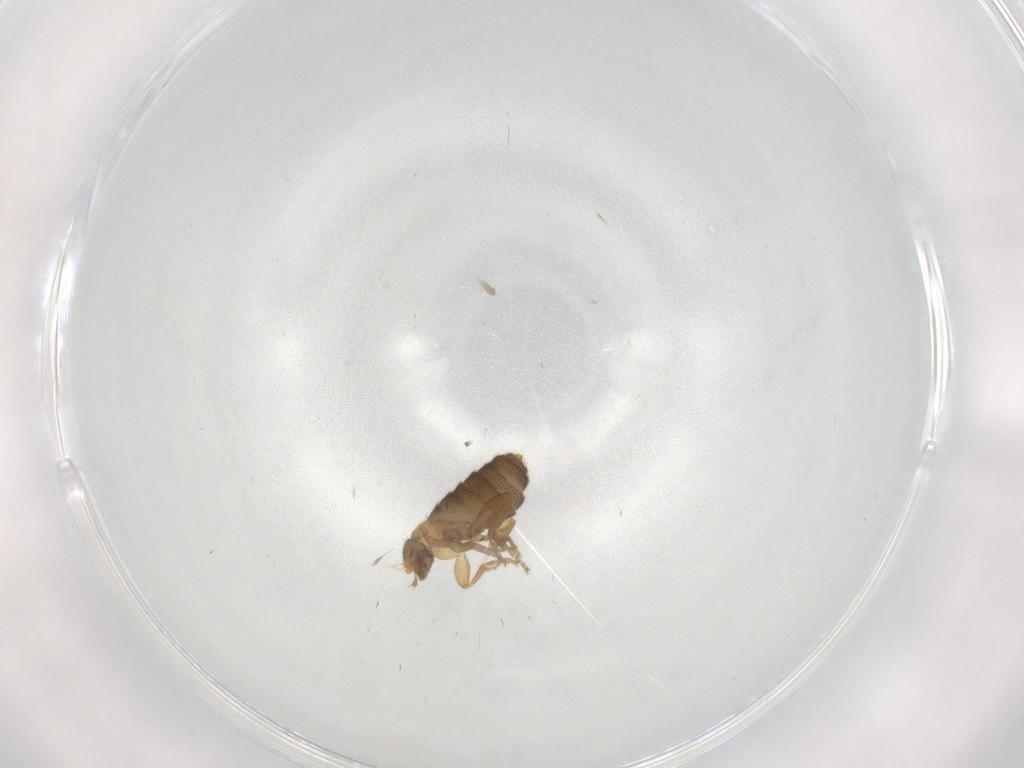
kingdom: Animalia
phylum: Arthropoda
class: Insecta
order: Diptera
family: Phoridae
